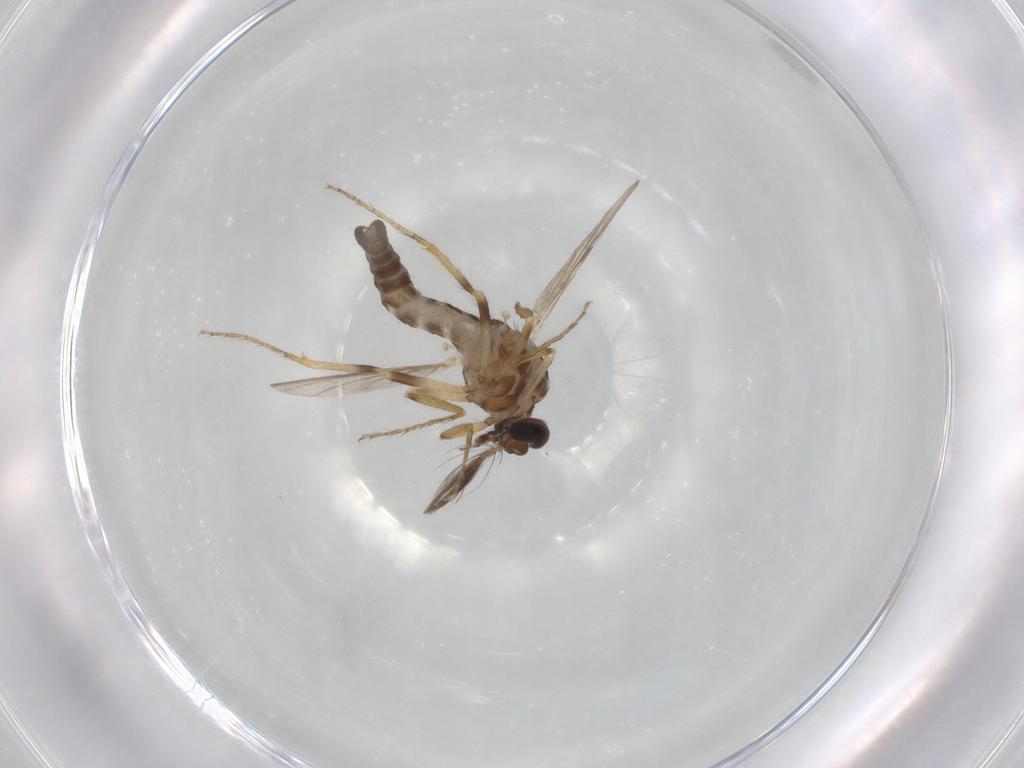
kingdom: Animalia
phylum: Arthropoda
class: Insecta
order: Diptera
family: Ceratopogonidae
